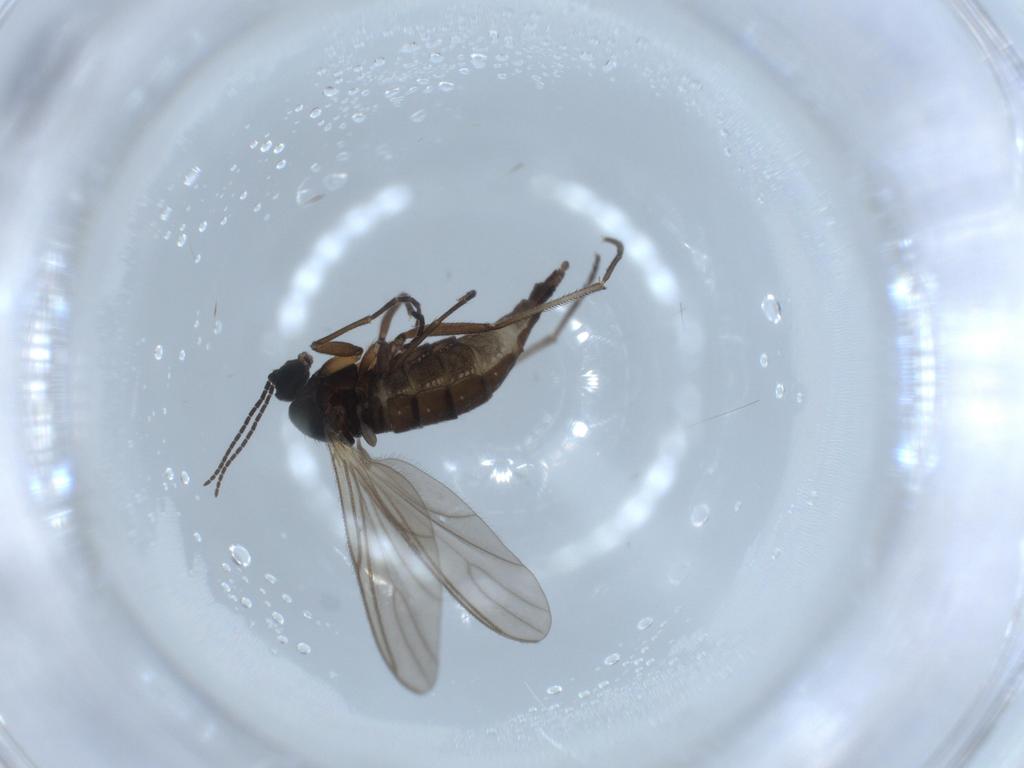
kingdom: Animalia
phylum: Arthropoda
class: Insecta
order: Diptera
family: Sciaridae
